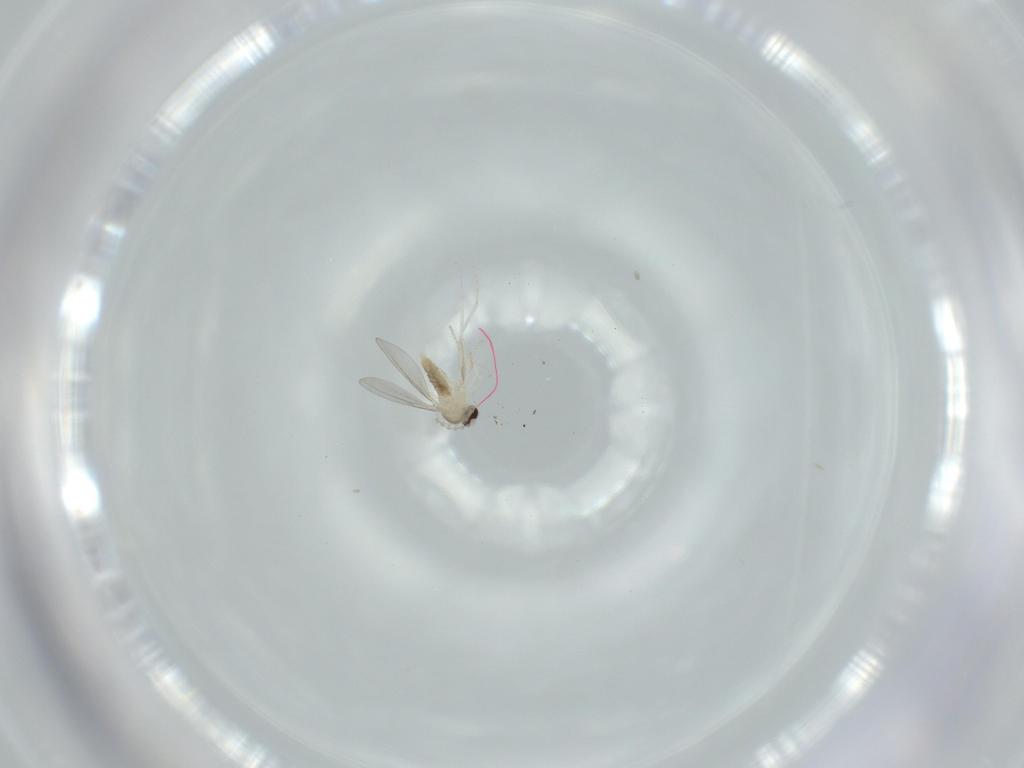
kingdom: Animalia
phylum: Arthropoda
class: Insecta
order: Diptera
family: Cecidomyiidae
